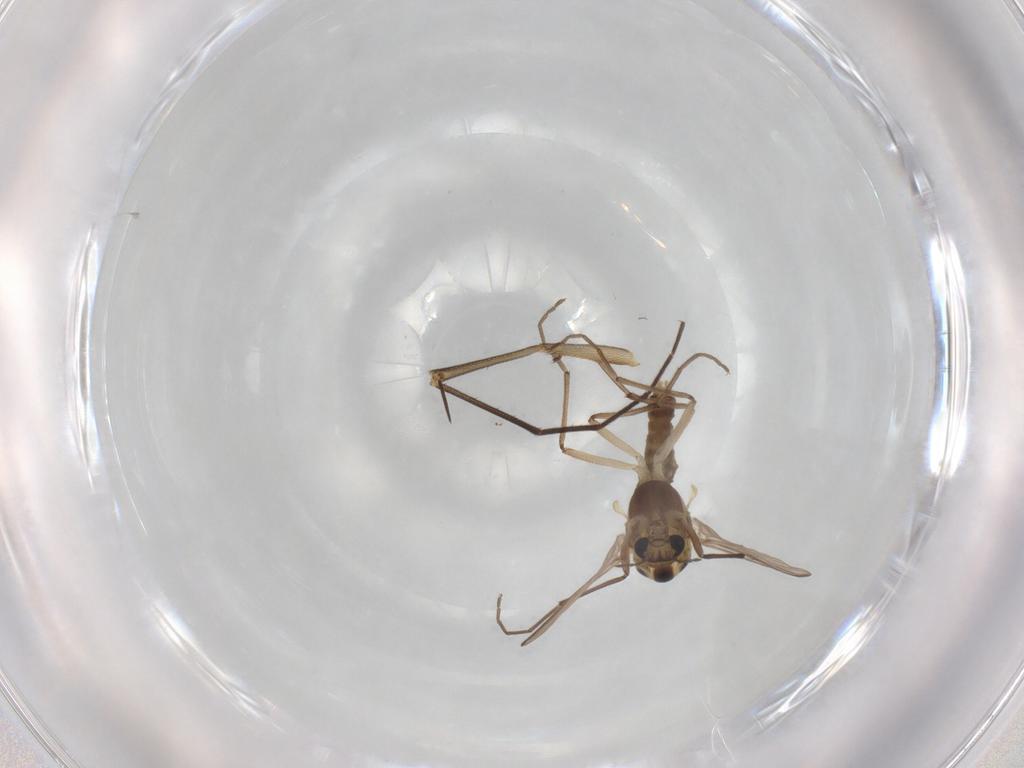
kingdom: Animalia
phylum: Arthropoda
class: Insecta
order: Diptera
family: Mycetophilidae
